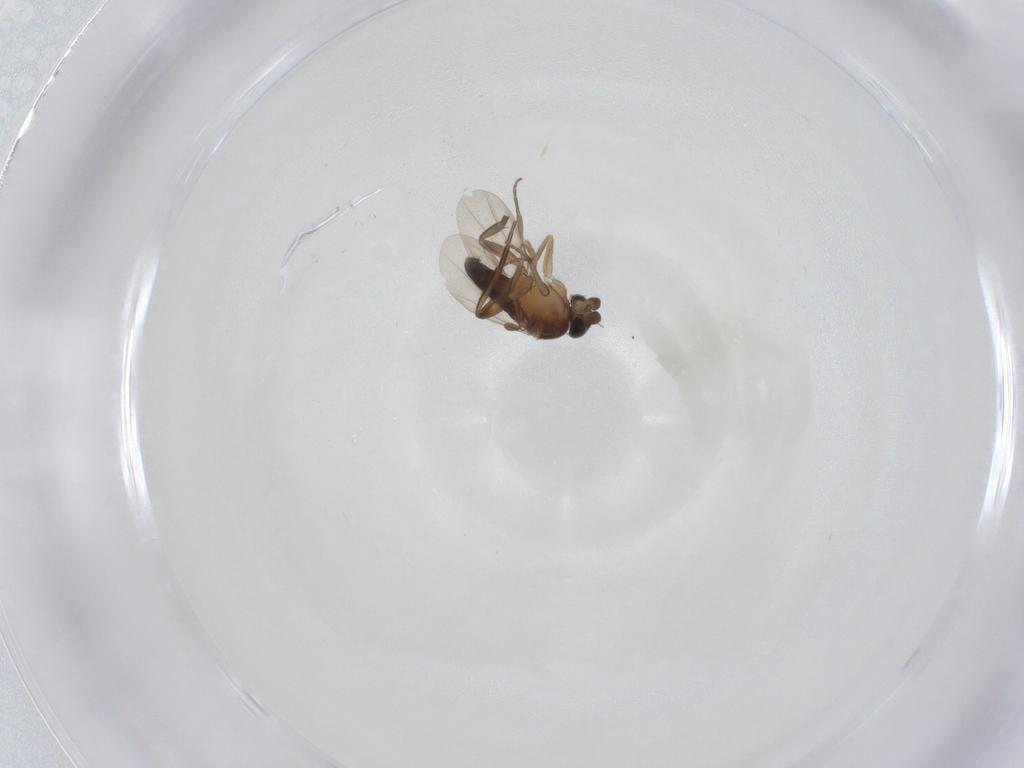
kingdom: Animalia
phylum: Arthropoda
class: Insecta
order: Diptera
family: Phoridae
